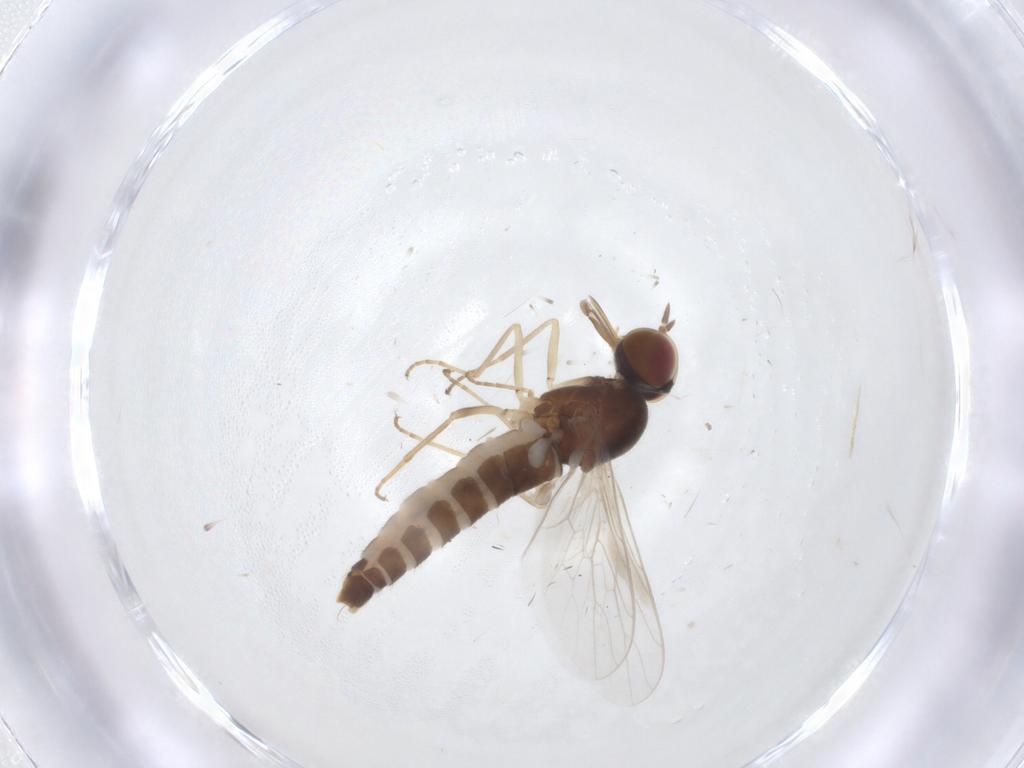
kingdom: Animalia
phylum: Arthropoda
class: Insecta
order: Diptera
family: Scenopinidae
